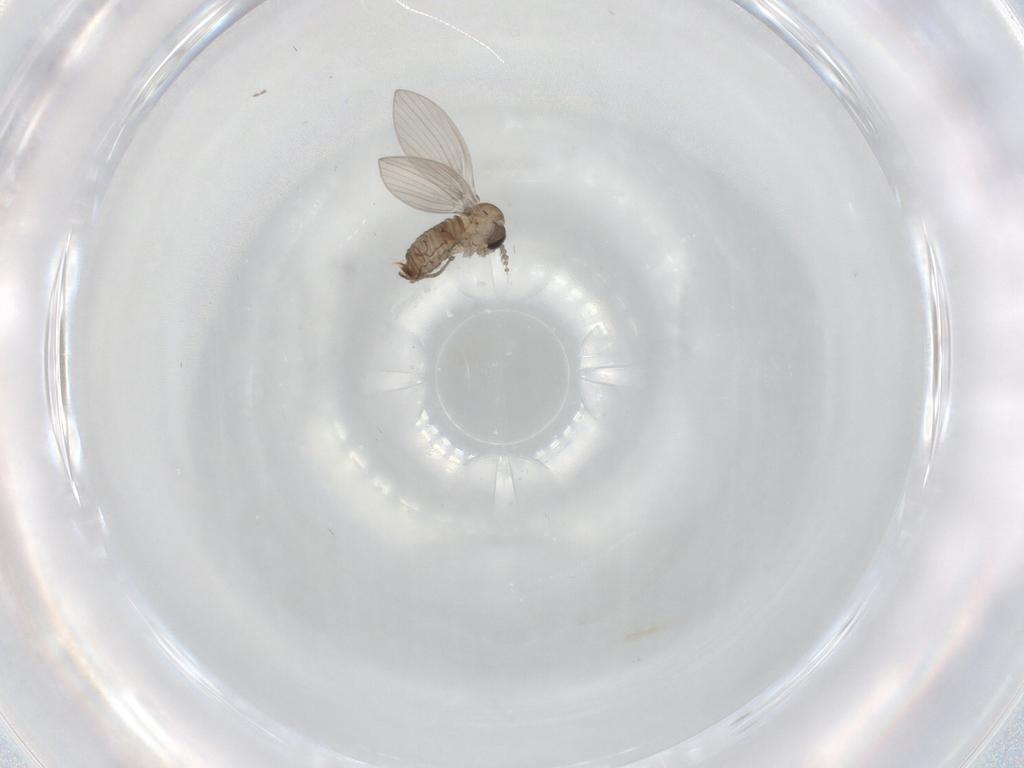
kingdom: Animalia
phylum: Arthropoda
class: Insecta
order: Diptera
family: Psychodidae
